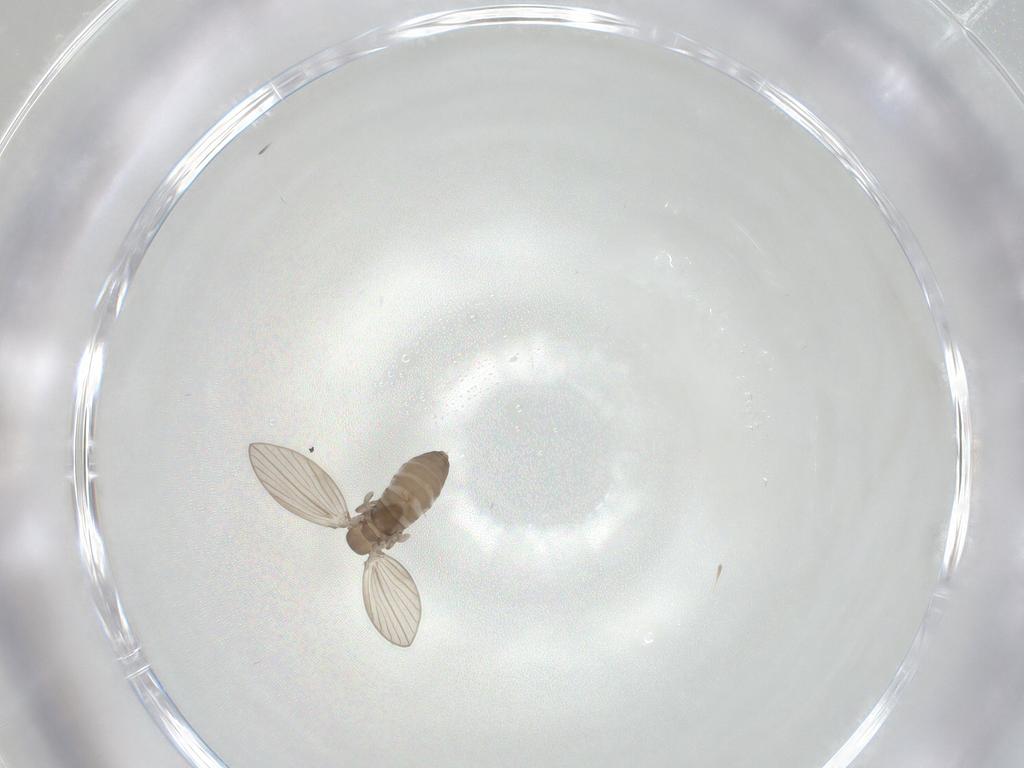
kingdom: Animalia
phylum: Arthropoda
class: Insecta
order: Diptera
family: Psychodidae
